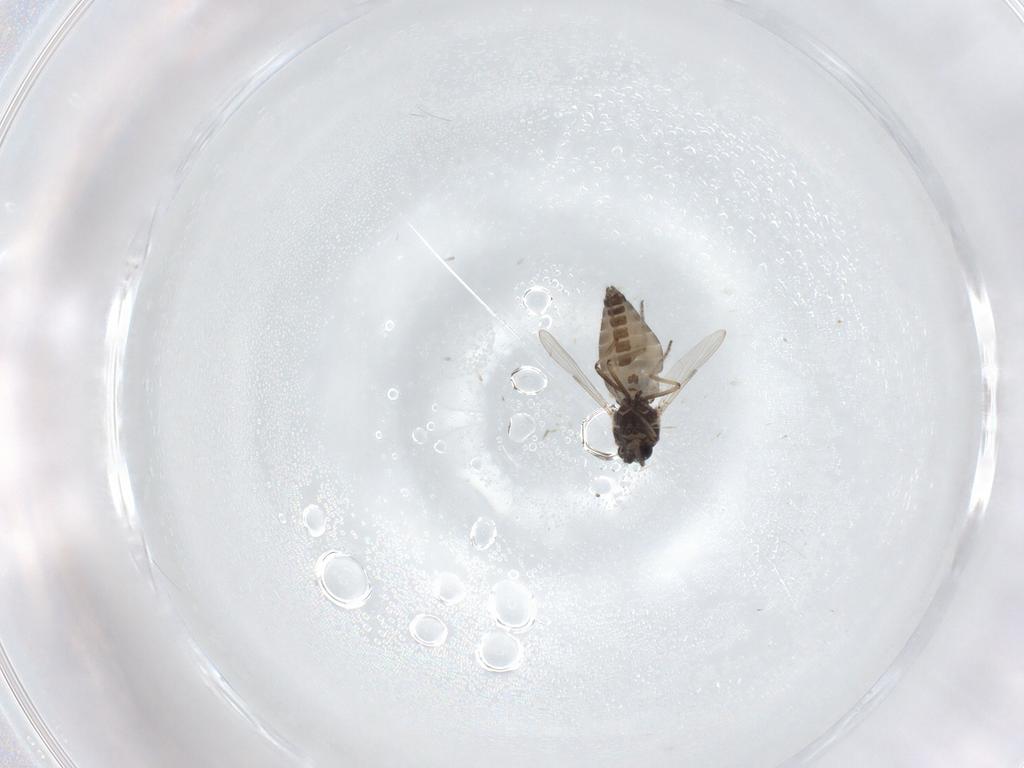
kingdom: Animalia
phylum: Arthropoda
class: Insecta
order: Diptera
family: Ceratopogonidae
